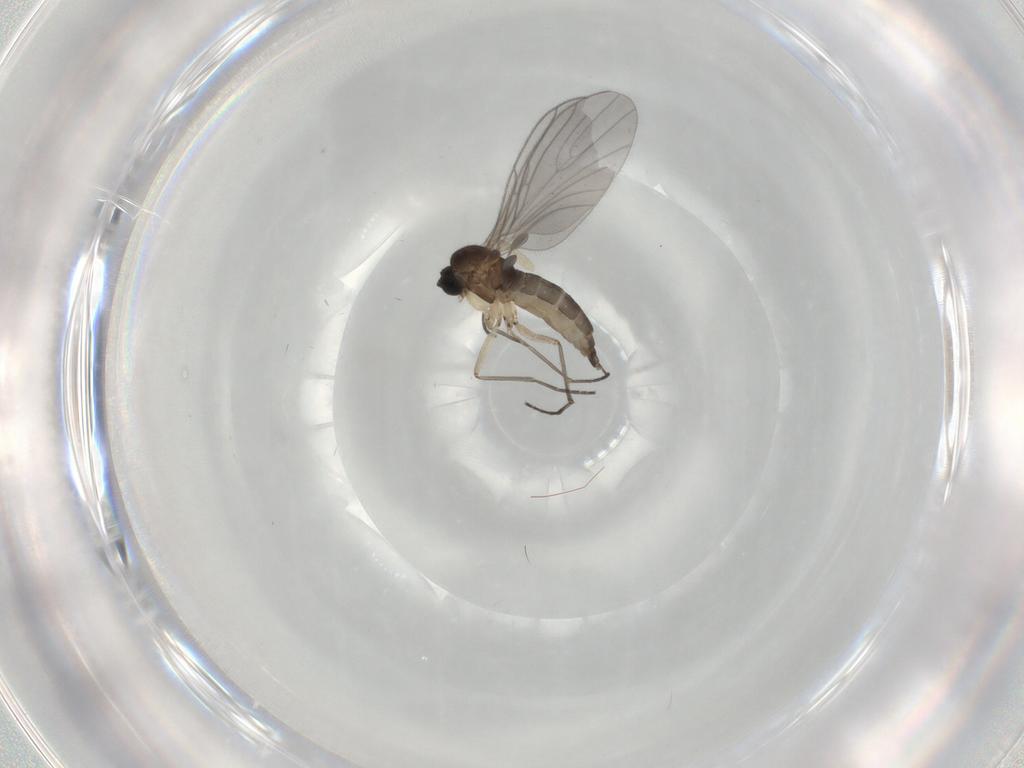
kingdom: Animalia
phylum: Arthropoda
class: Insecta
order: Diptera
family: Sciaridae
